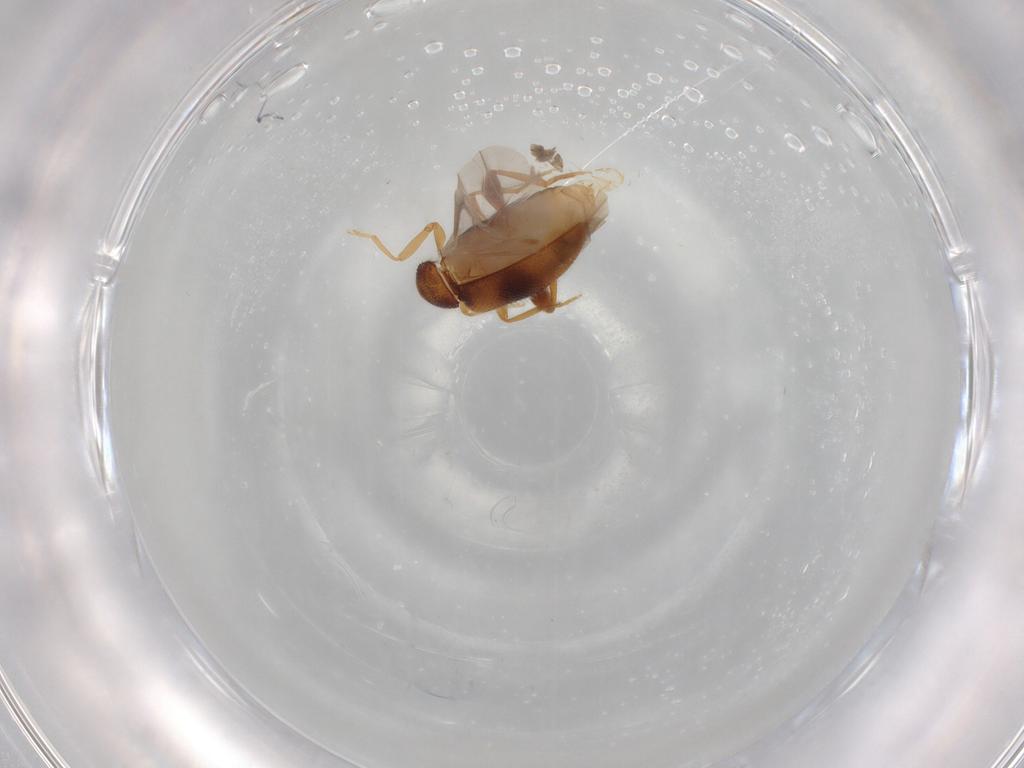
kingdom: Animalia
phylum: Arthropoda
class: Insecta
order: Coleoptera
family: Aderidae
